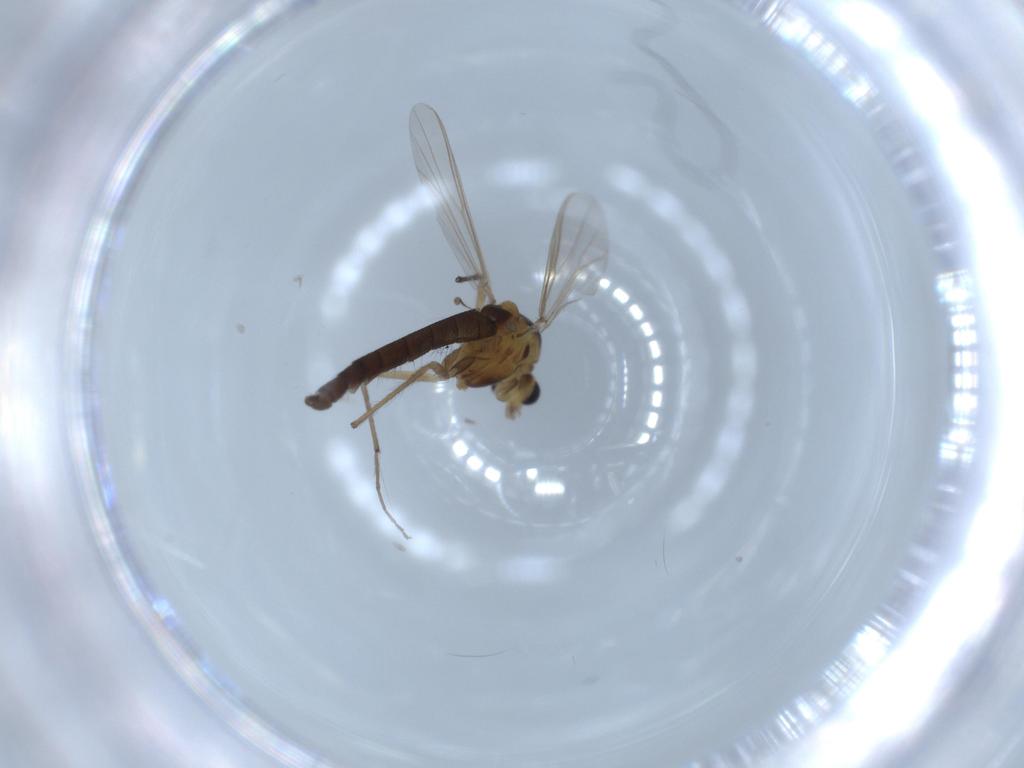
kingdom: Animalia
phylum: Arthropoda
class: Insecta
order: Diptera
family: Chironomidae
